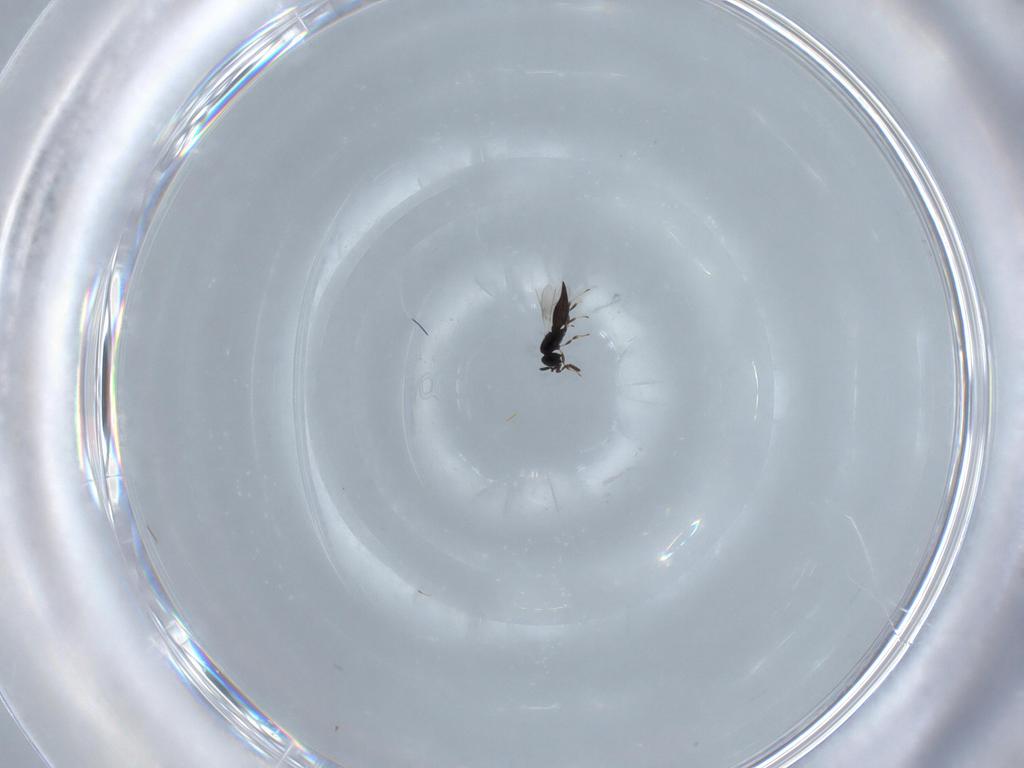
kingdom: Animalia
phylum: Arthropoda
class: Insecta
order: Hymenoptera
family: Scelionidae
